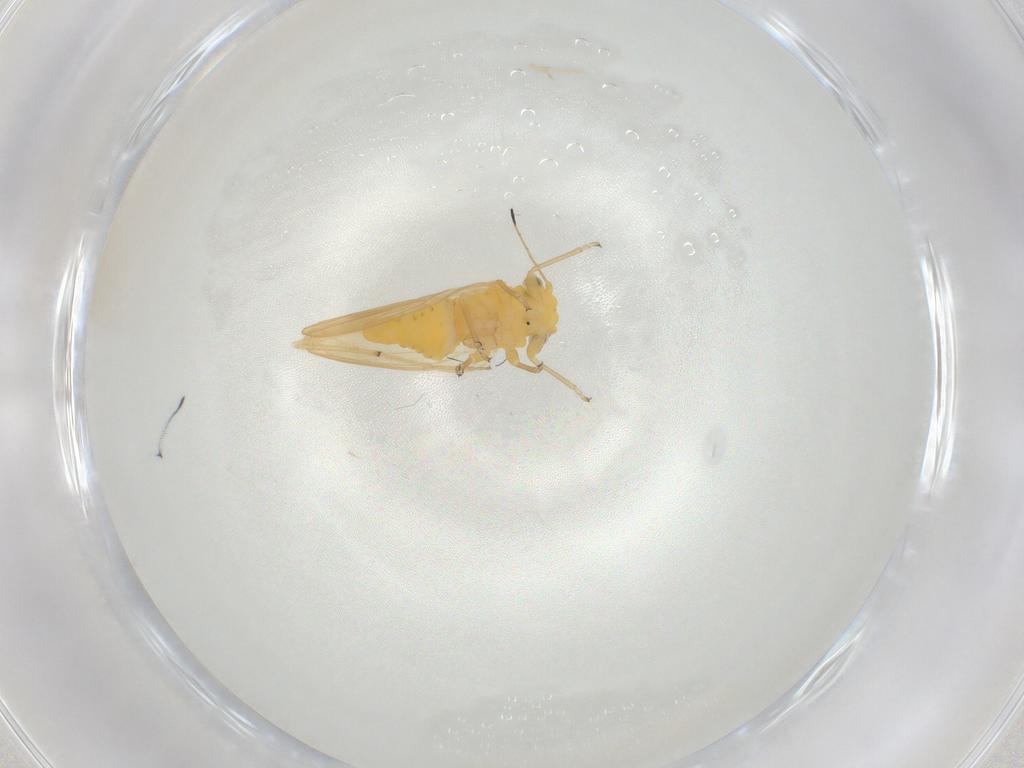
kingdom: Animalia
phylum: Arthropoda
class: Insecta
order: Hemiptera
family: Psylloidea_incertae_sedis
